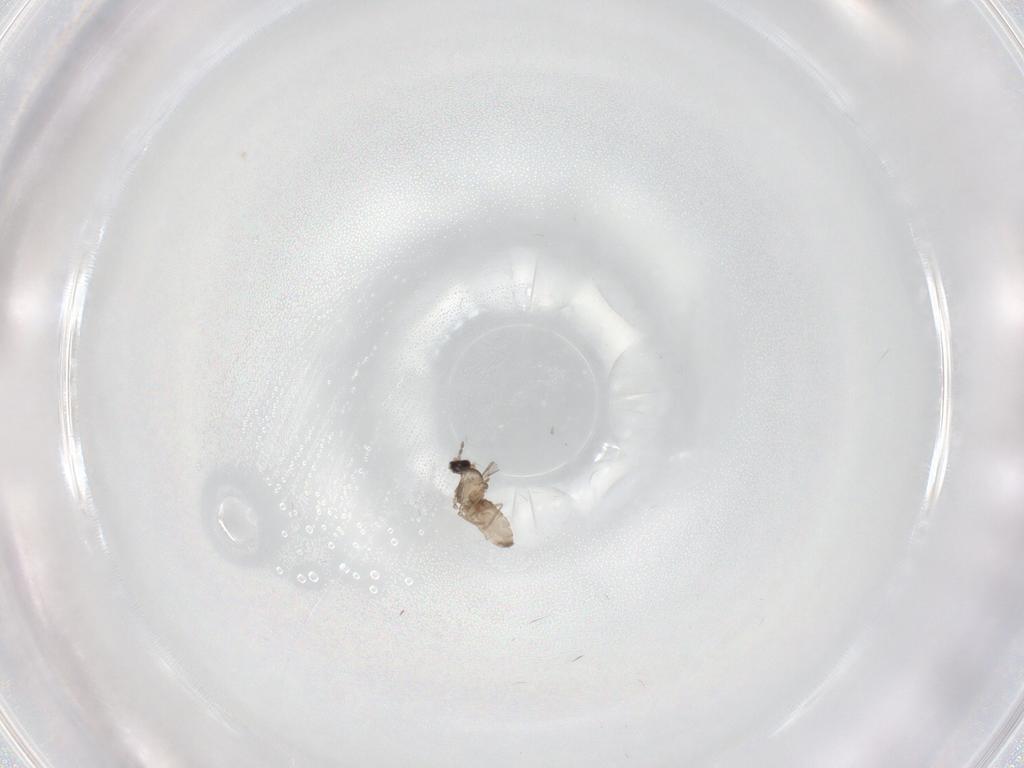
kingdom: Animalia
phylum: Arthropoda
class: Insecta
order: Diptera
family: Cecidomyiidae
